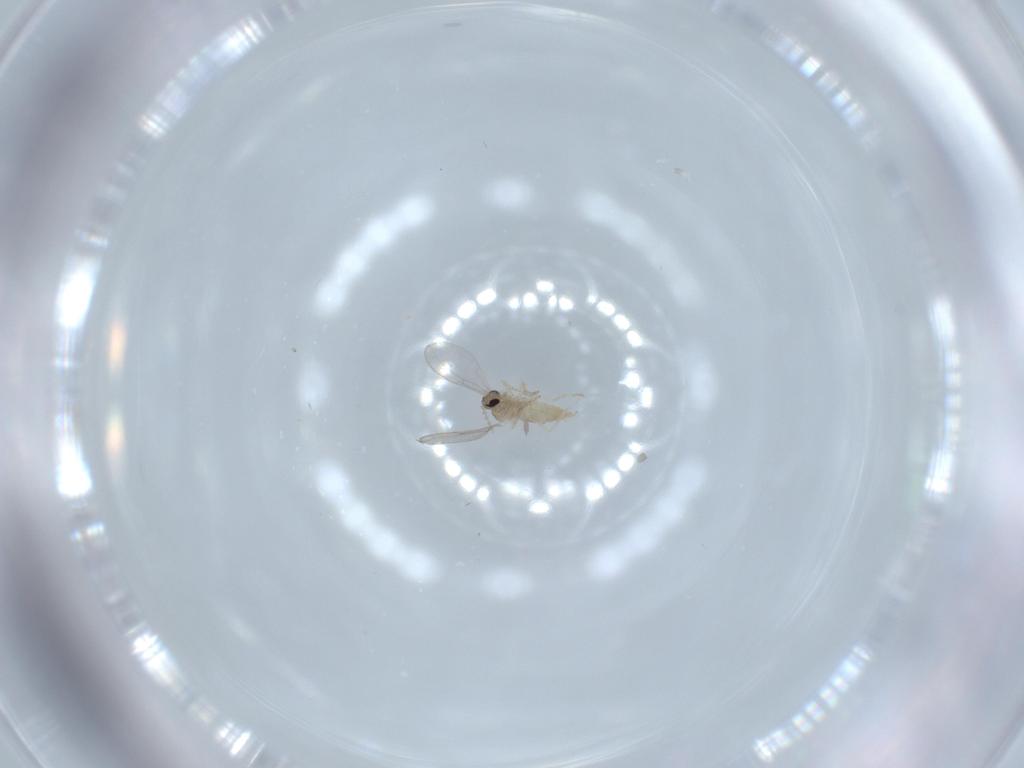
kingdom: Animalia
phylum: Arthropoda
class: Insecta
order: Diptera
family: Cecidomyiidae
